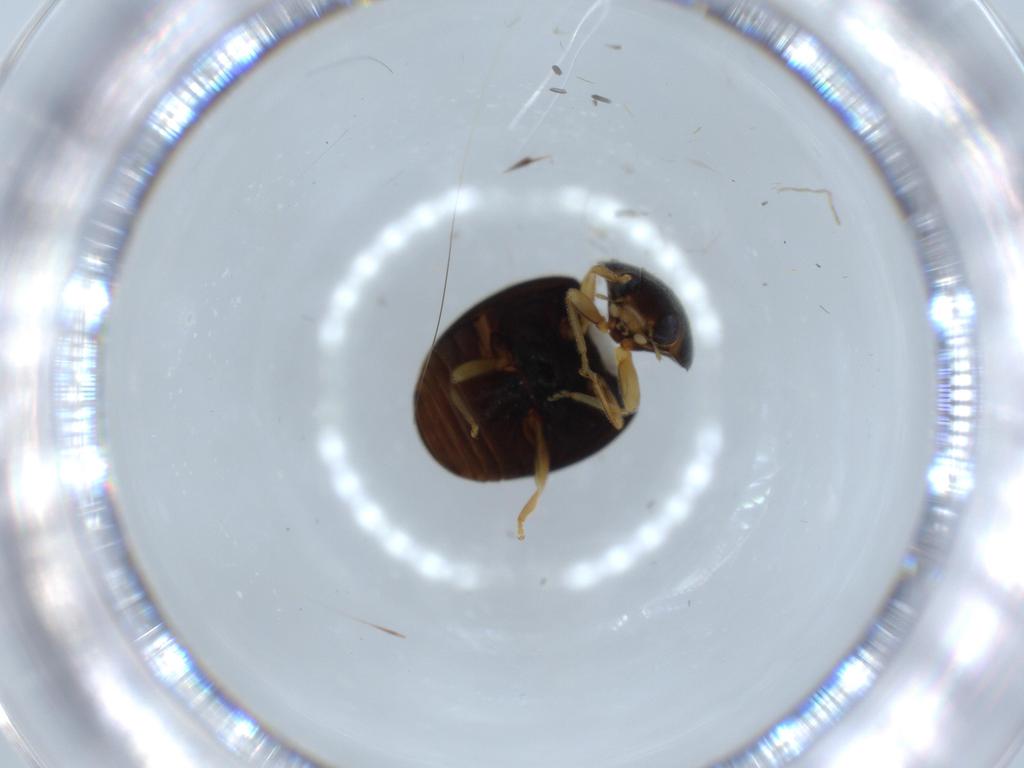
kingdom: Animalia
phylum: Arthropoda
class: Insecta
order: Coleoptera
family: Coccinellidae
